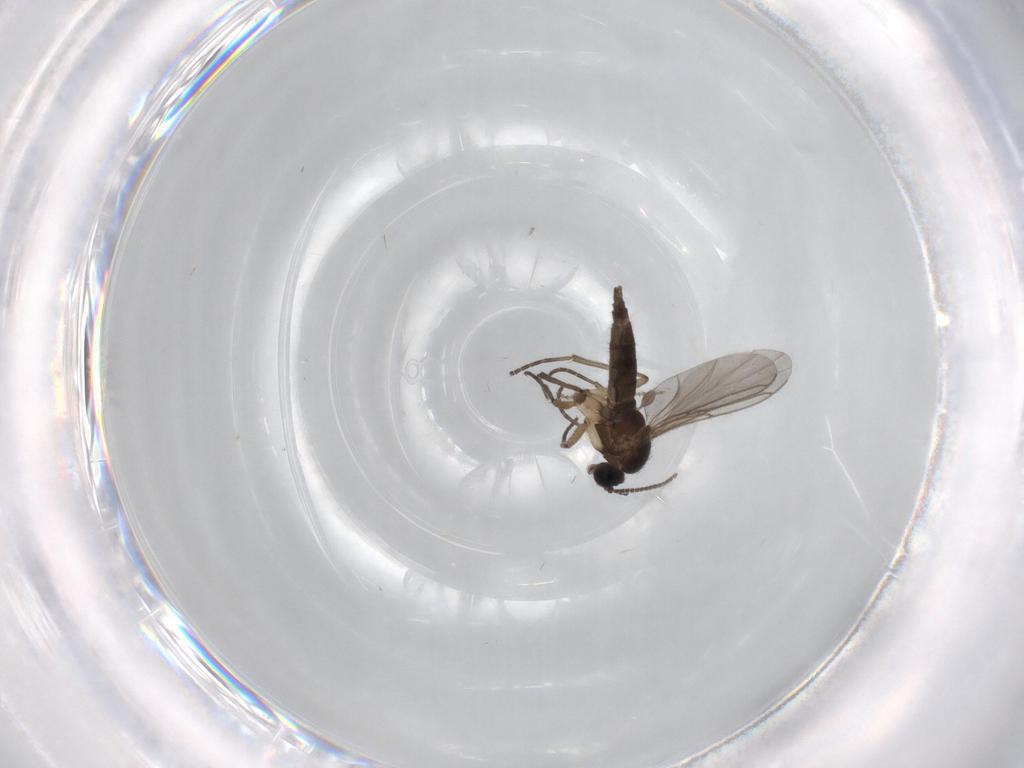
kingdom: Animalia
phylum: Arthropoda
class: Insecta
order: Diptera
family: Cecidomyiidae
